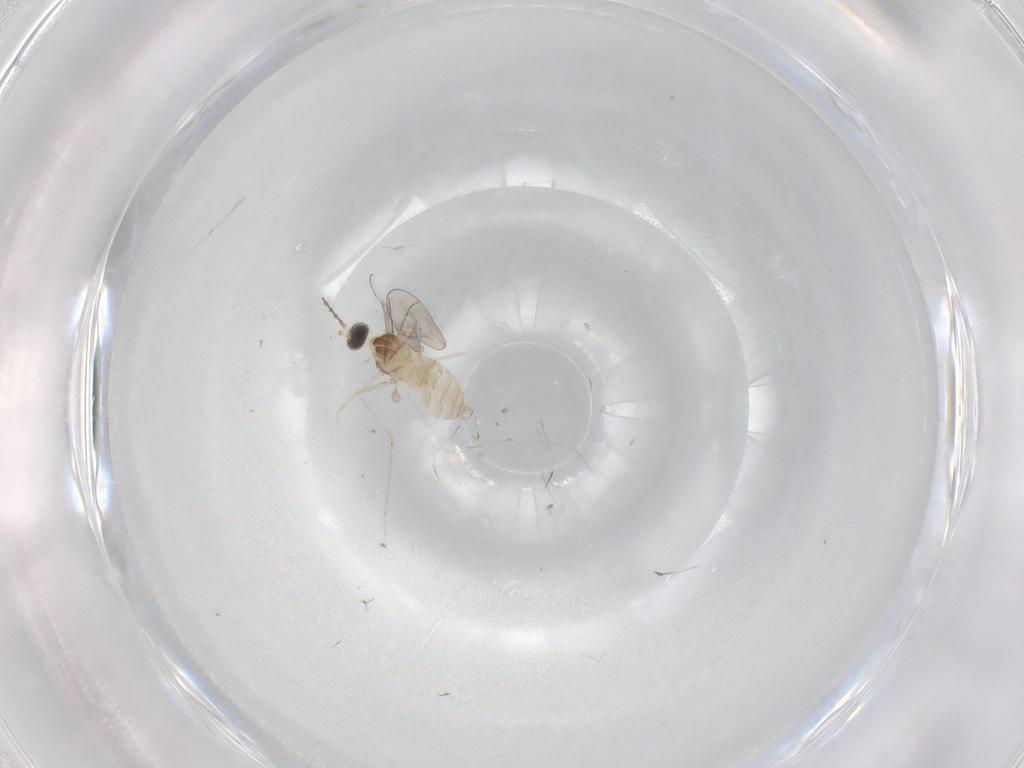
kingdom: Animalia
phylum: Arthropoda
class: Insecta
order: Diptera
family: Cecidomyiidae
